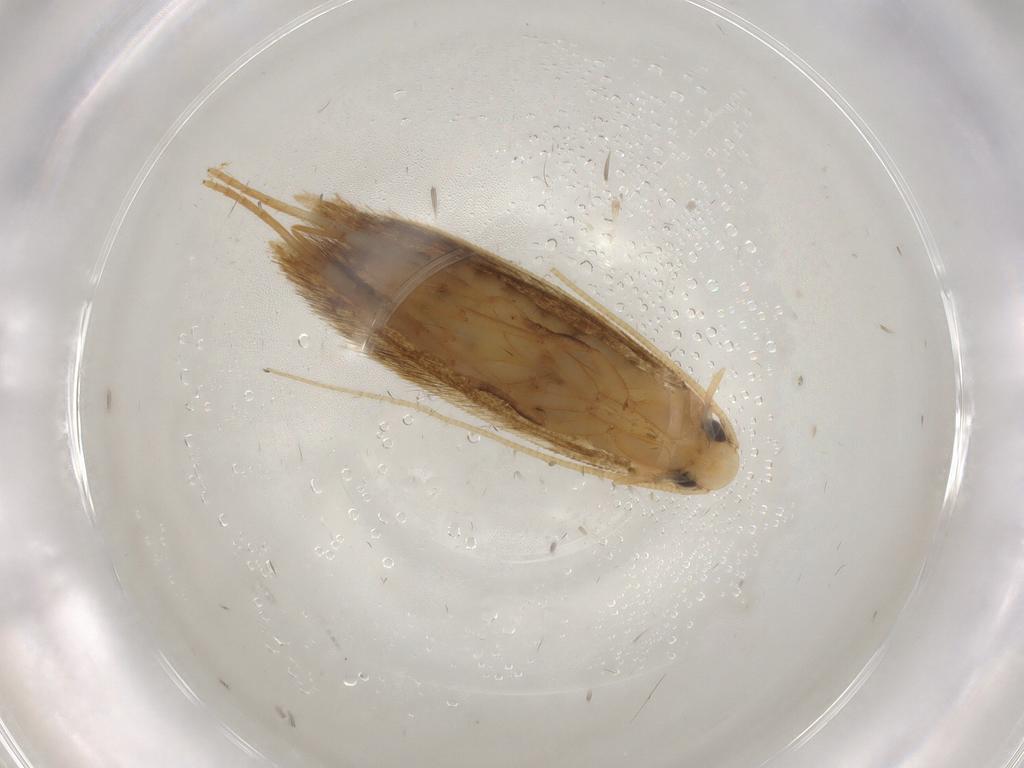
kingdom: Animalia
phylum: Arthropoda
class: Insecta
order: Lepidoptera
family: Tineidae
